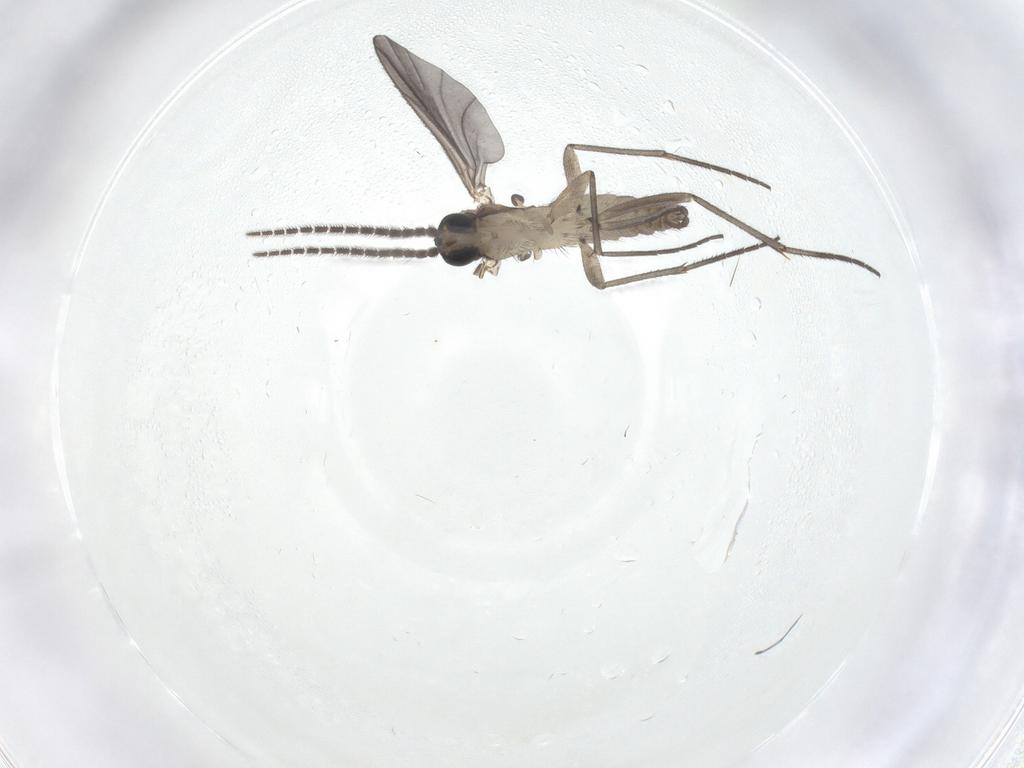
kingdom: Animalia
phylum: Arthropoda
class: Insecta
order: Diptera
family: Sciaridae
